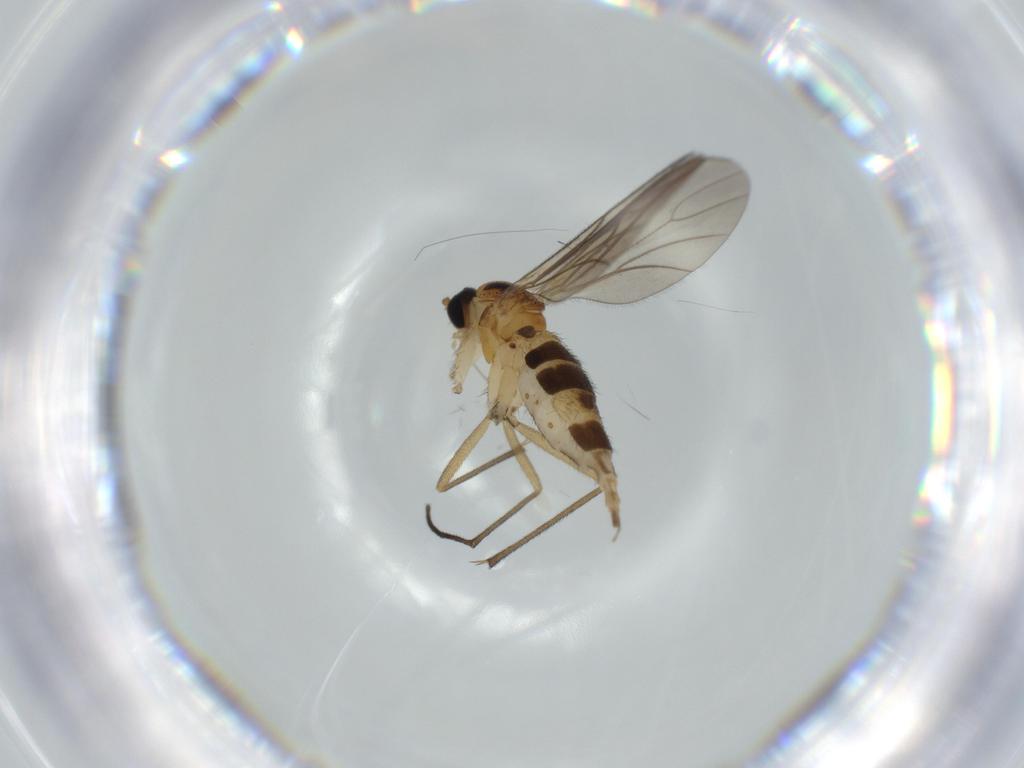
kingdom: Animalia
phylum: Arthropoda
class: Insecta
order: Diptera
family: Sciaridae
